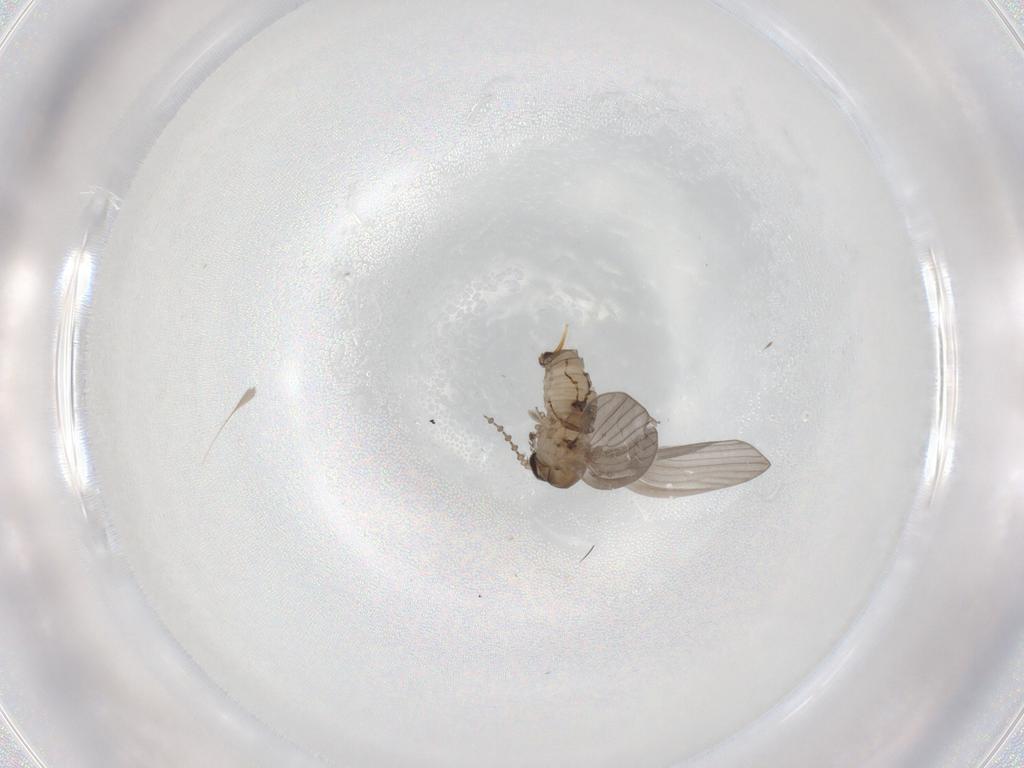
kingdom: Animalia
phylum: Arthropoda
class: Insecta
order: Diptera
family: Psychodidae
